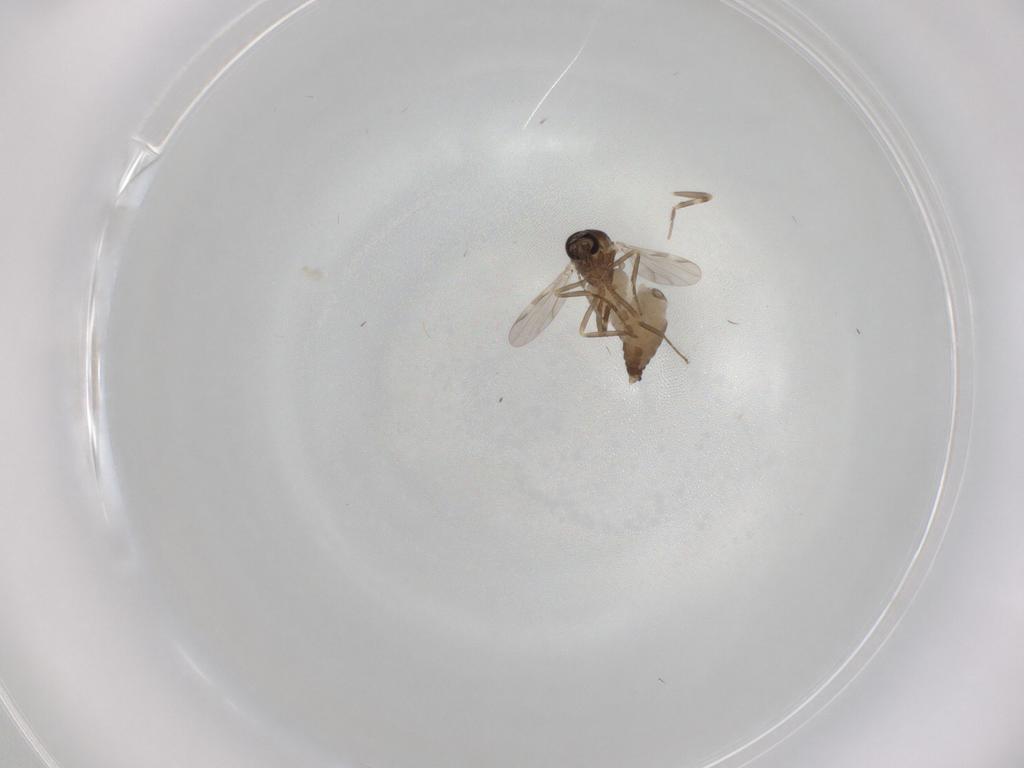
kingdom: Animalia
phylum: Arthropoda
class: Insecta
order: Diptera
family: Ceratopogonidae
